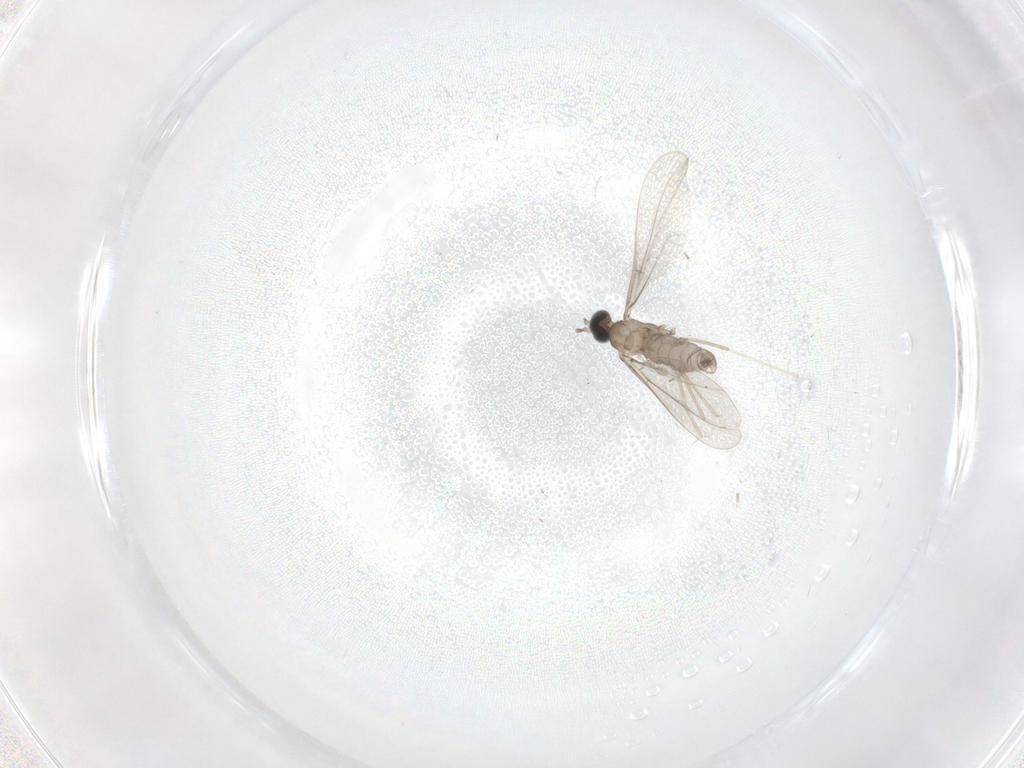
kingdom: Animalia
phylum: Arthropoda
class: Insecta
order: Diptera
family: Cecidomyiidae
